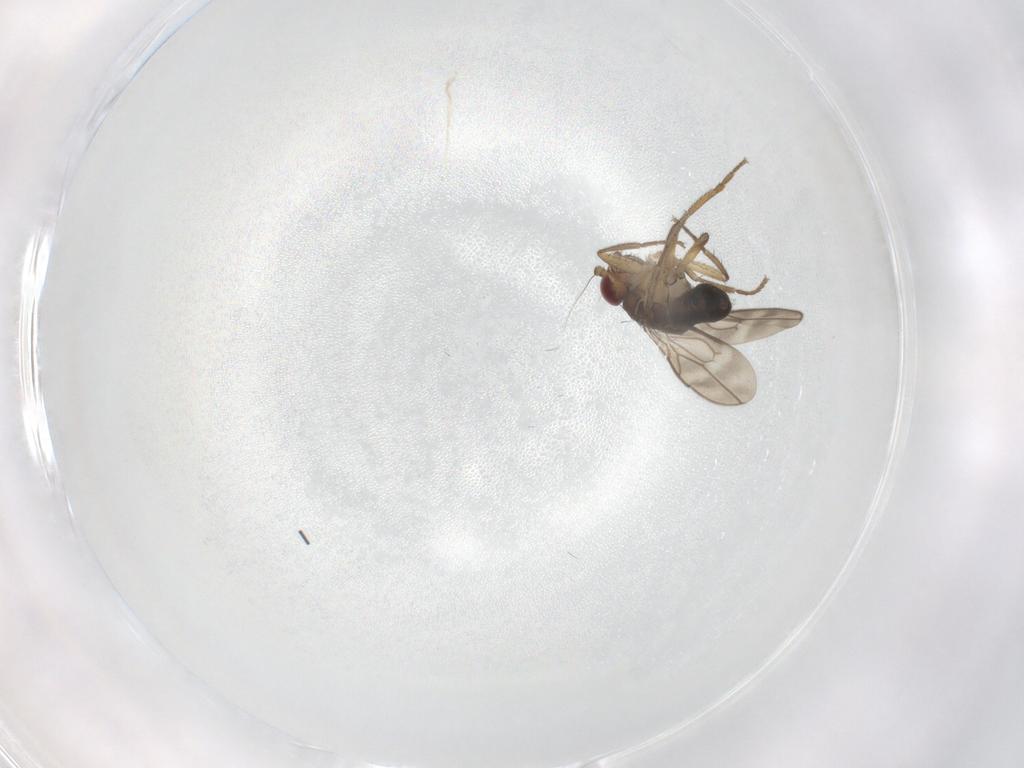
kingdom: Animalia
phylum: Arthropoda
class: Insecta
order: Diptera
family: Sphaeroceridae
